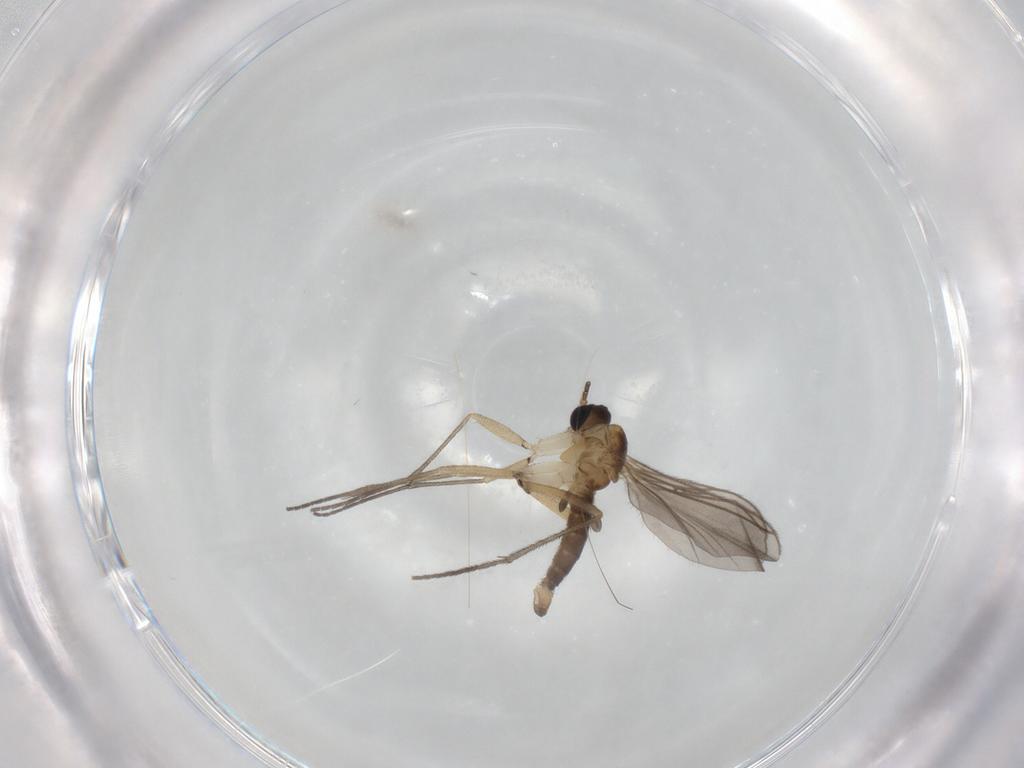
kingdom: Animalia
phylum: Arthropoda
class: Insecta
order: Diptera
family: Sciaridae
